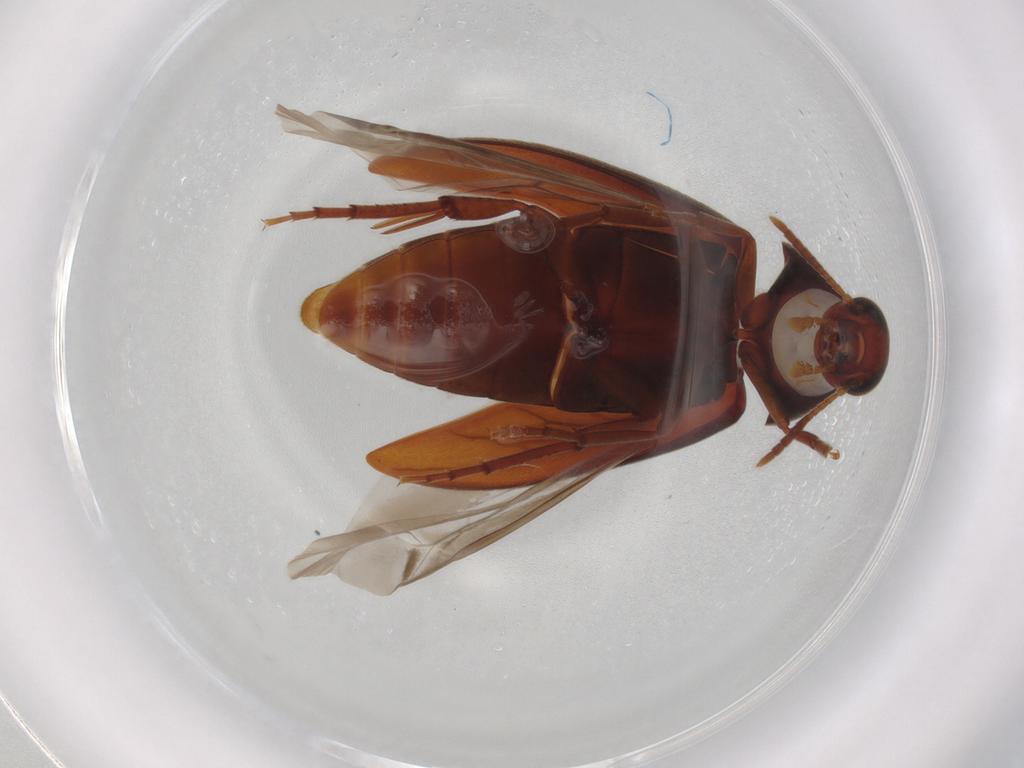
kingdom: Animalia
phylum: Arthropoda
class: Insecta
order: Coleoptera
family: Melandryidae
